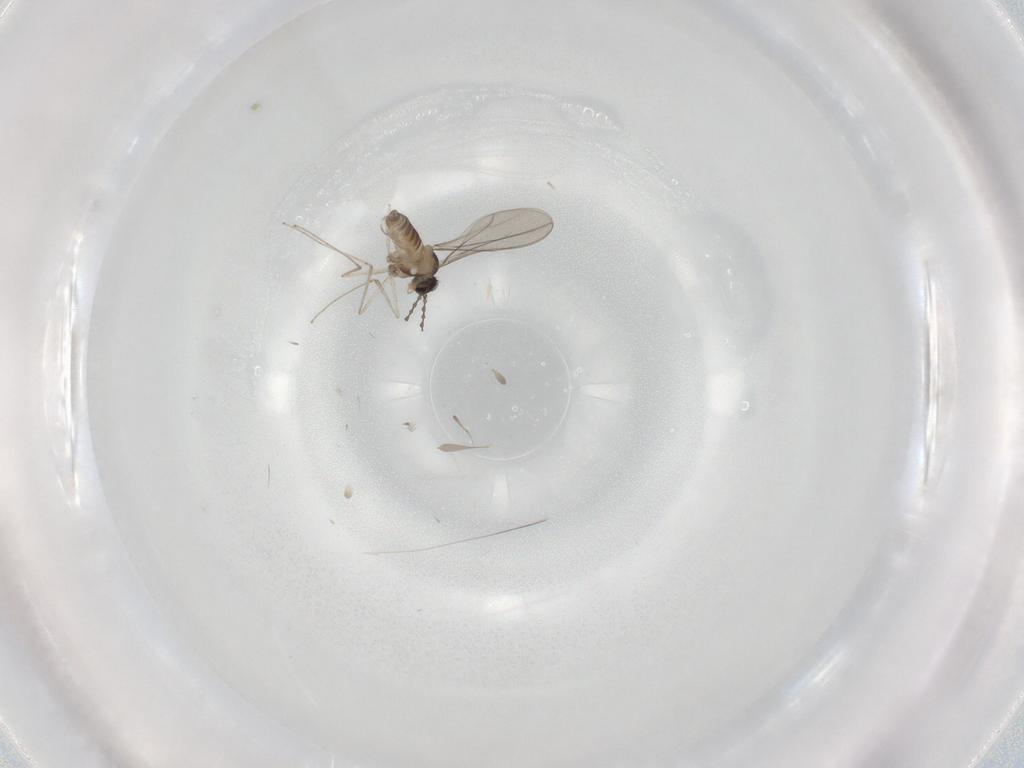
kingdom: Animalia
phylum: Arthropoda
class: Insecta
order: Diptera
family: Cecidomyiidae
